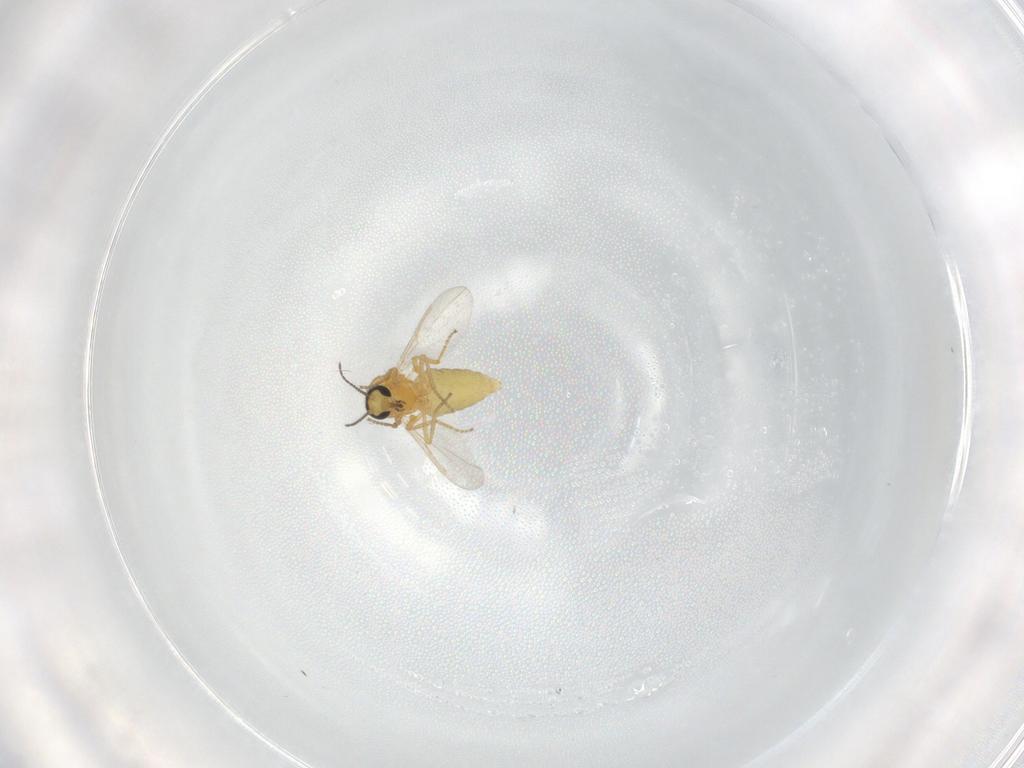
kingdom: Animalia
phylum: Arthropoda
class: Insecta
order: Diptera
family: Ceratopogonidae
